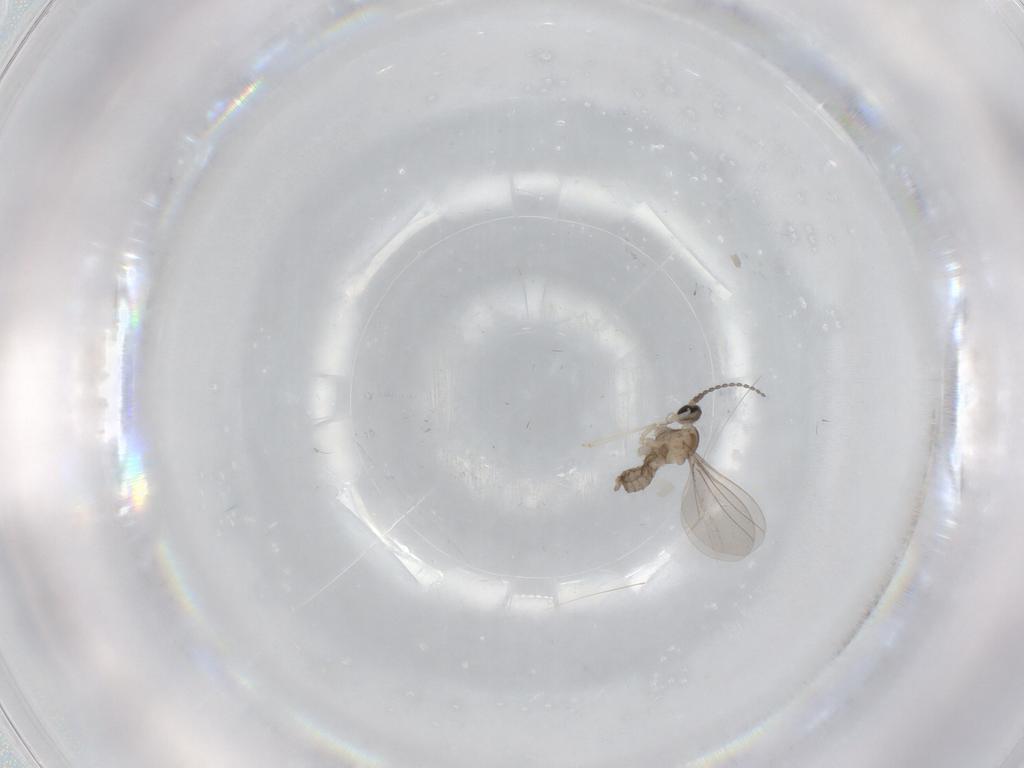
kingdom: Animalia
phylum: Arthropoda
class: Insecta
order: Diptera
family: Cecidomyiidae
